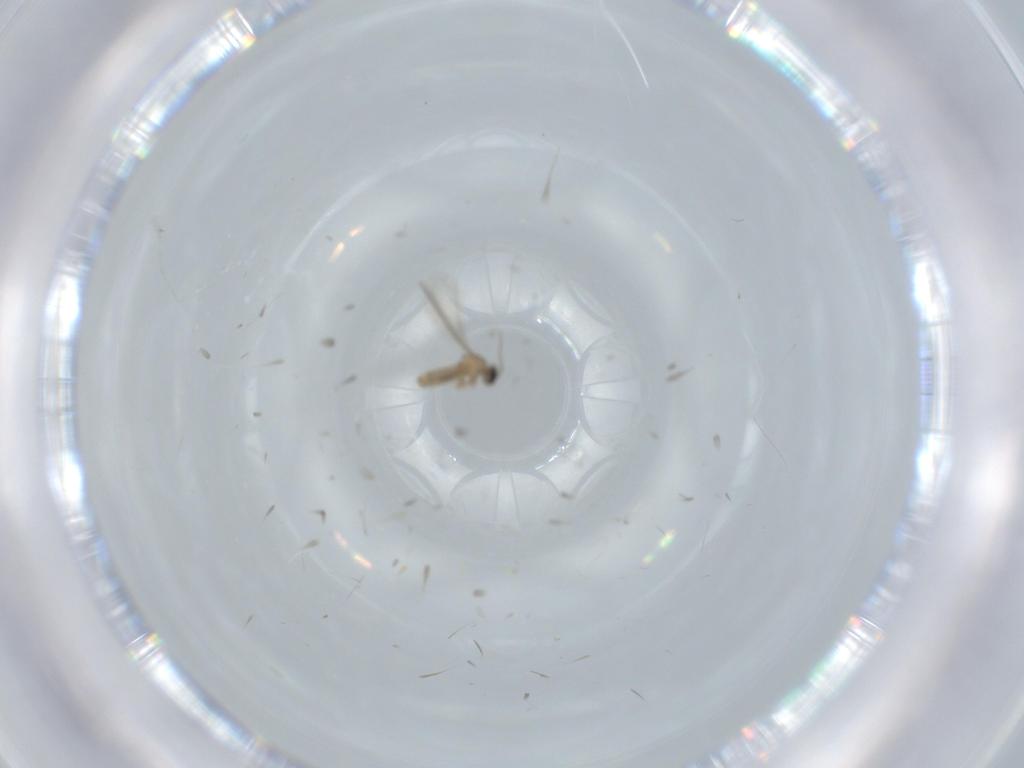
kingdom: Animalia
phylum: Arthropoda
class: Insecta
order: Diptera
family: Cecidomyiidae
